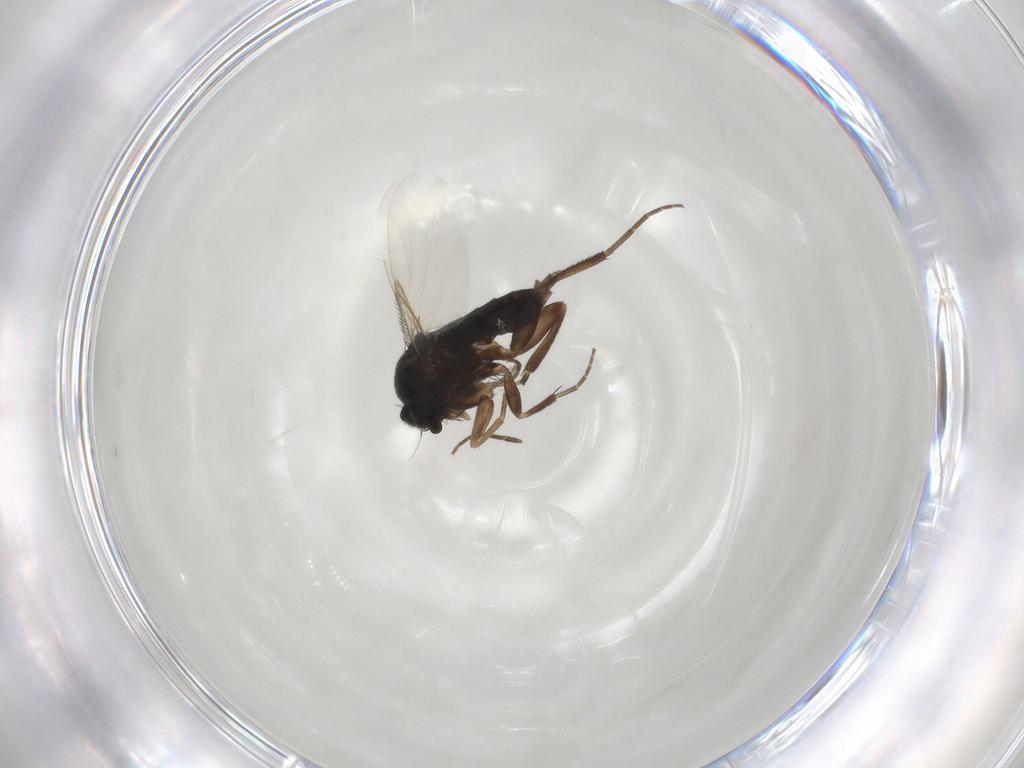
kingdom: Animalia
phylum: Arthropoda
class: Insecta
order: Diptera
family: Phoridae
